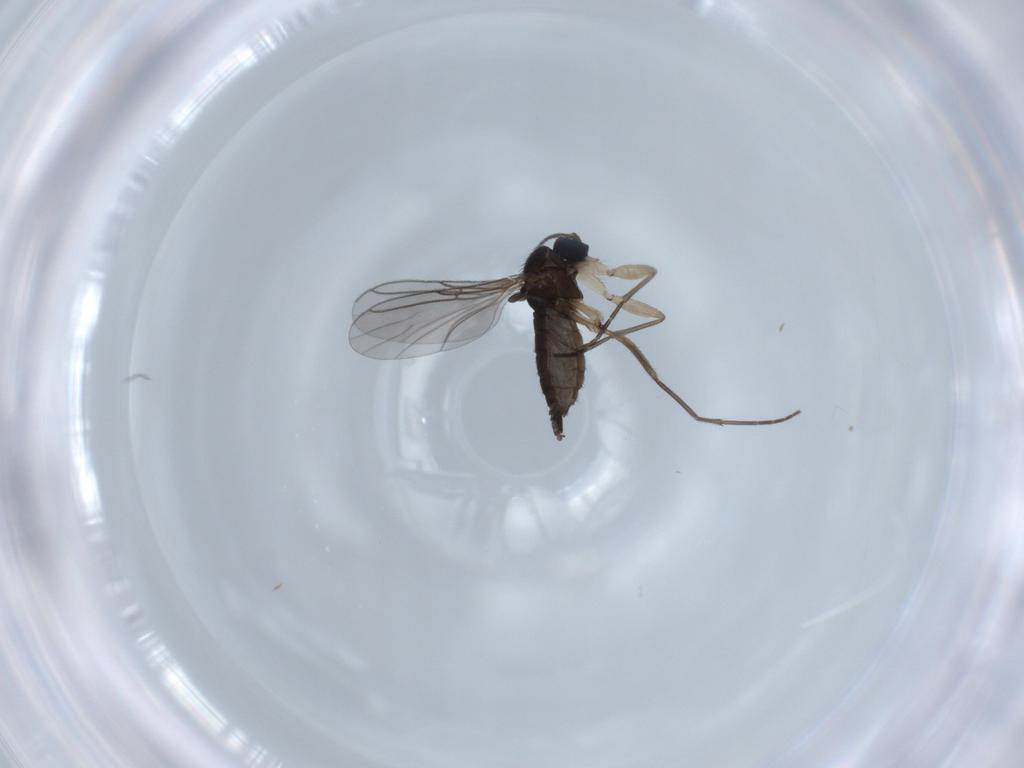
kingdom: Animalia
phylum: Arthropoda
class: Insecta
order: Diptera
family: Sciaridae
